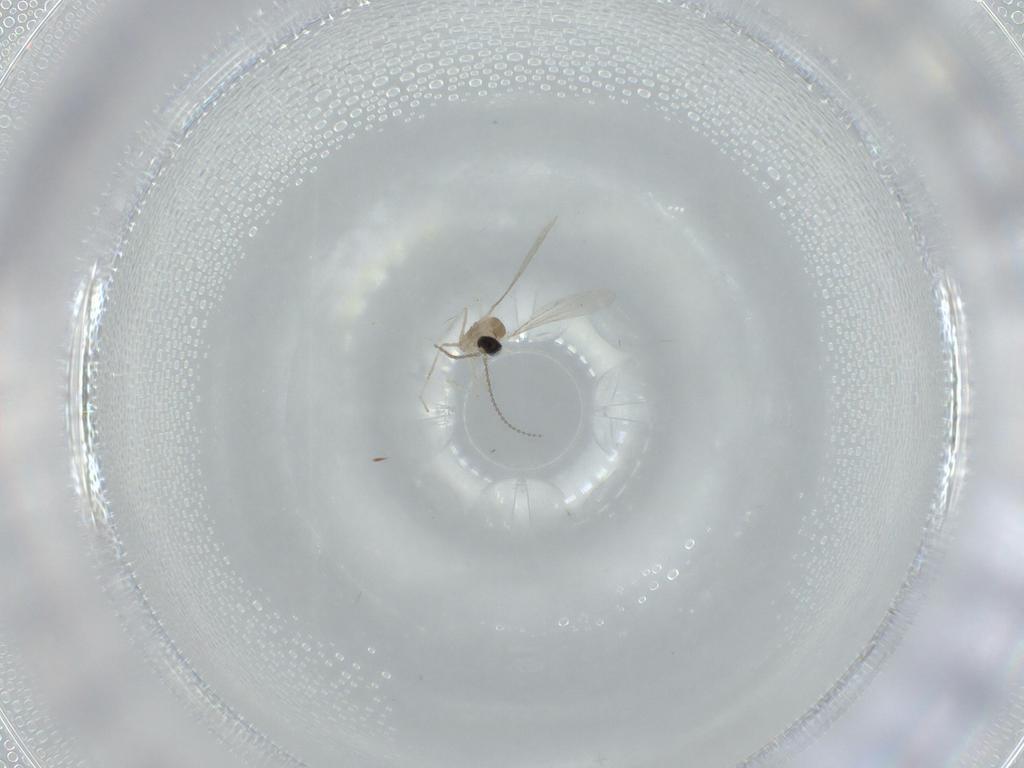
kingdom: Animalia
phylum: Arthropoda
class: Insecta
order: Diptera
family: Cecidomyiidae
